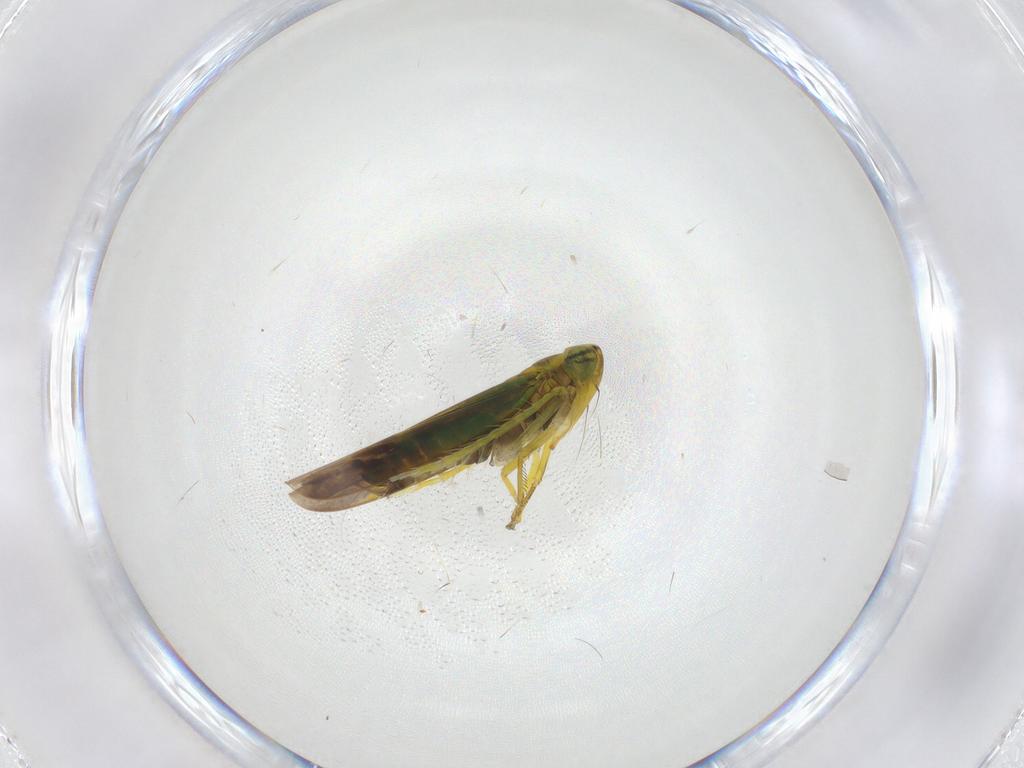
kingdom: Animalia
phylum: Arthropoda
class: Insecta
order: Hemiptera
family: Cicadellidae
